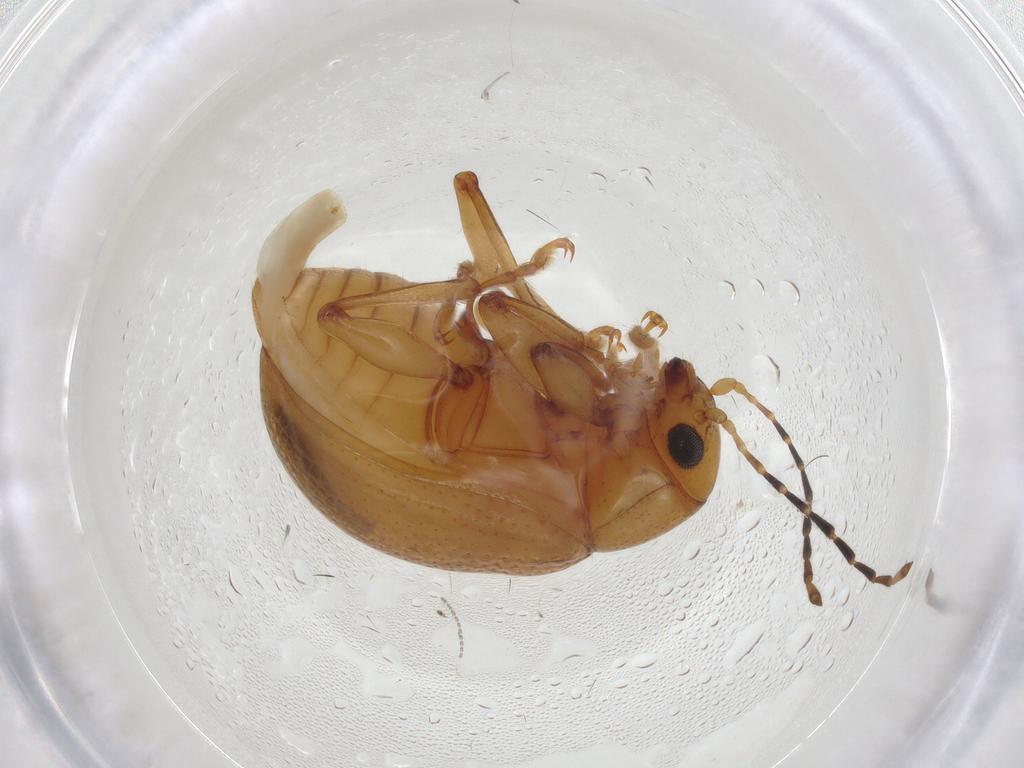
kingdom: Animalia
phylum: Arthropoda
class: Insecta
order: Coleoptera
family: Chrysomelidae
